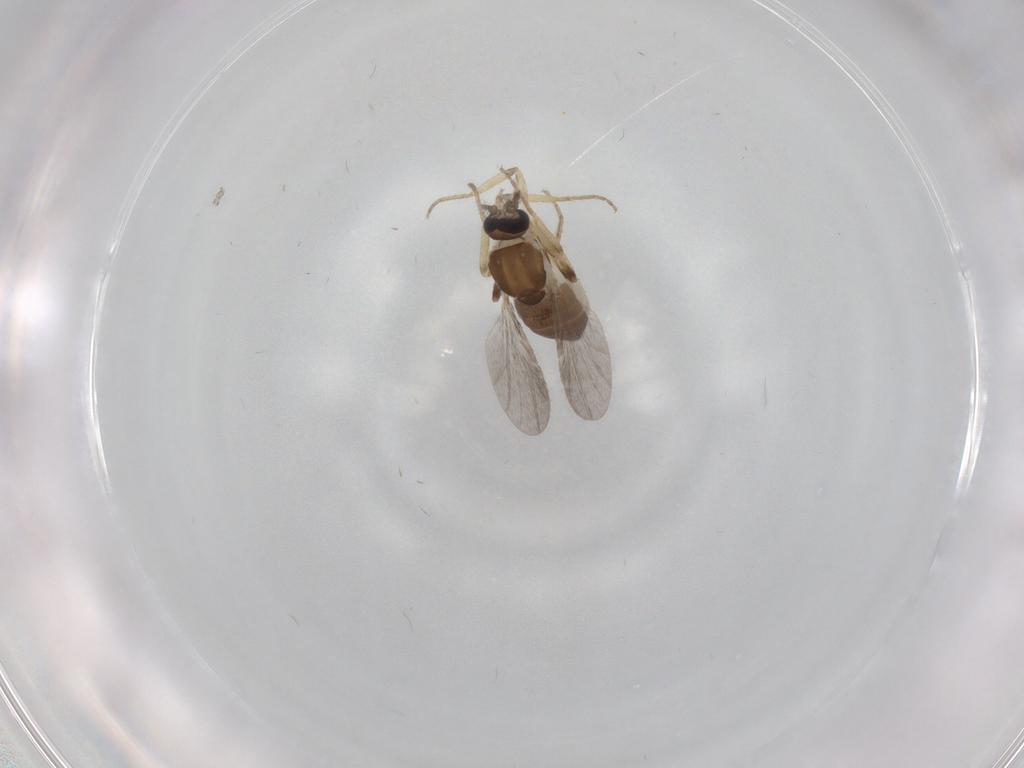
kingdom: Animalia
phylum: Arthropoda
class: Insecta
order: Diptera
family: Ceratopogonidae
